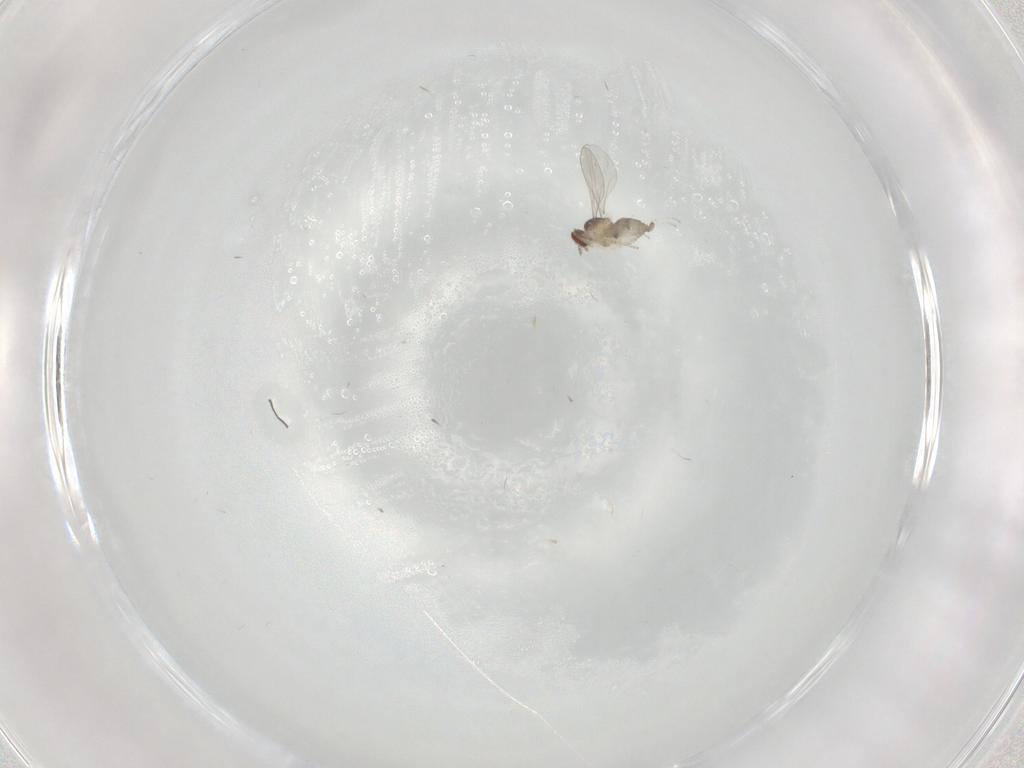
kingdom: Animalia
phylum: Arthropoda
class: Insecta
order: Diptera
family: Cecidomyiidae
